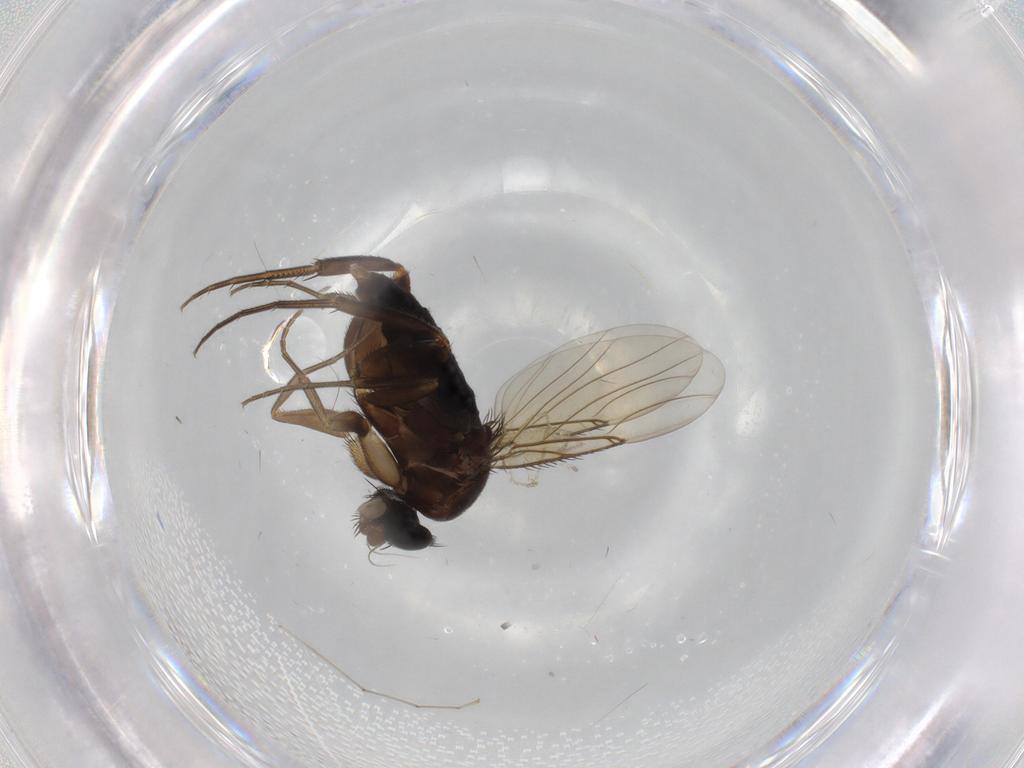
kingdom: Animalia
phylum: Arthropoda
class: Insecta
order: Diptera
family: Phoridae
